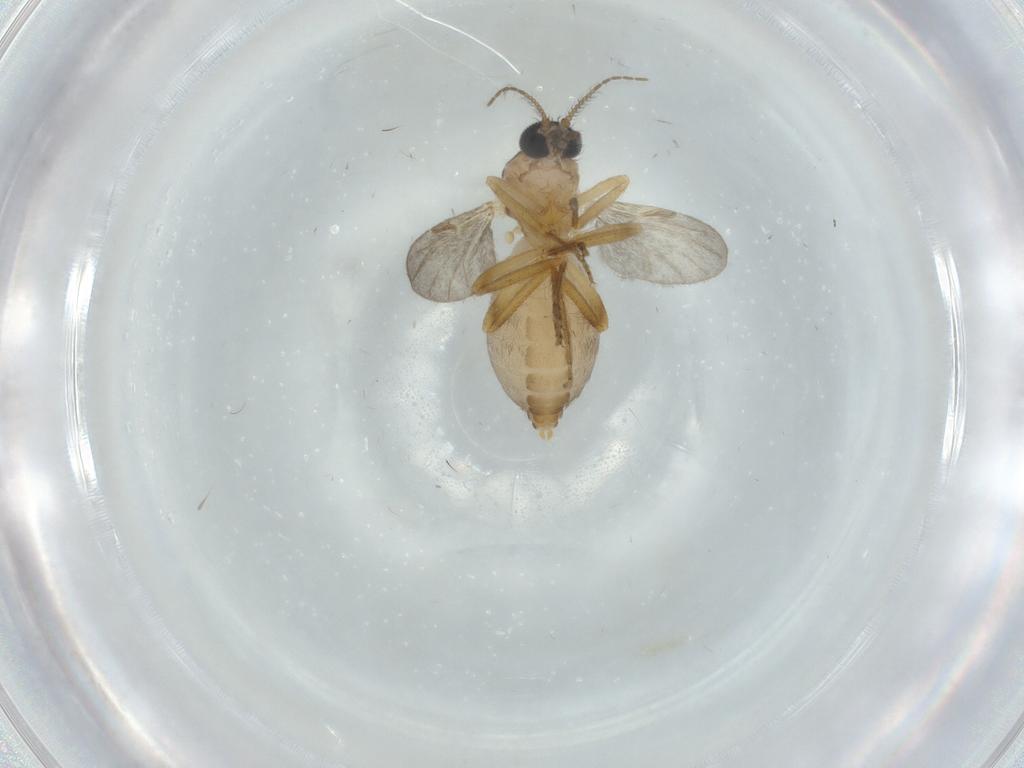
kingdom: Animalia
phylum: Arthropoda
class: Insecta
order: Diptera
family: Ceratopogonidae
